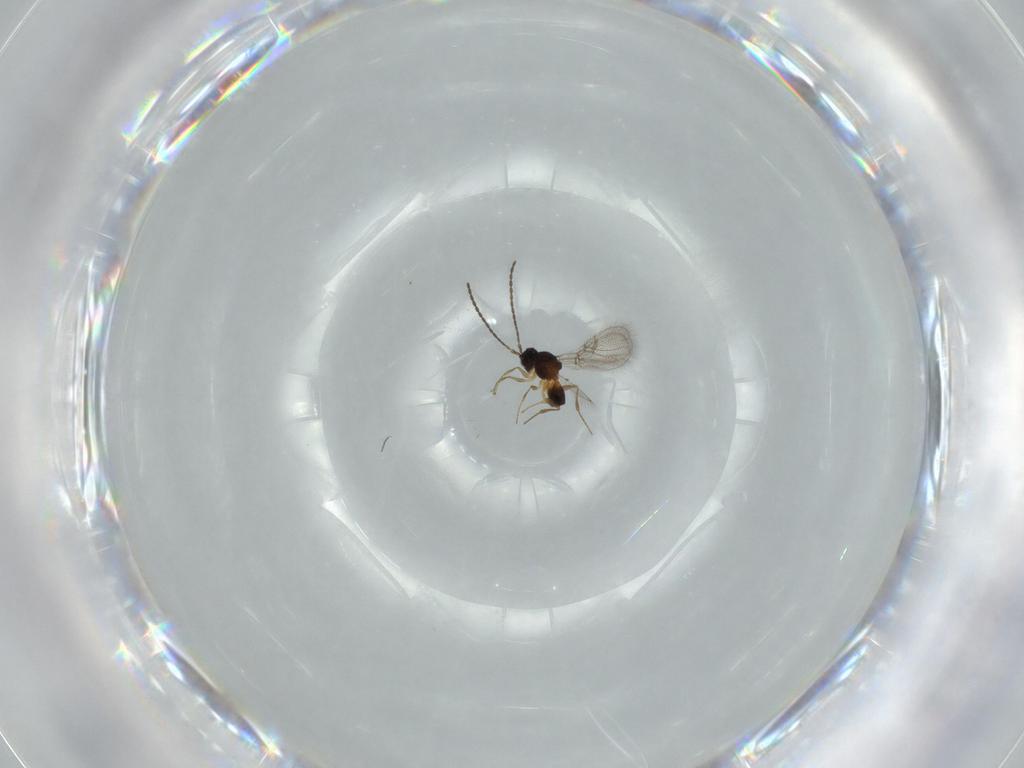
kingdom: Animalia
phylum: Arthropoda
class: Insecta
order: Hymenoptera
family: Figitidae
